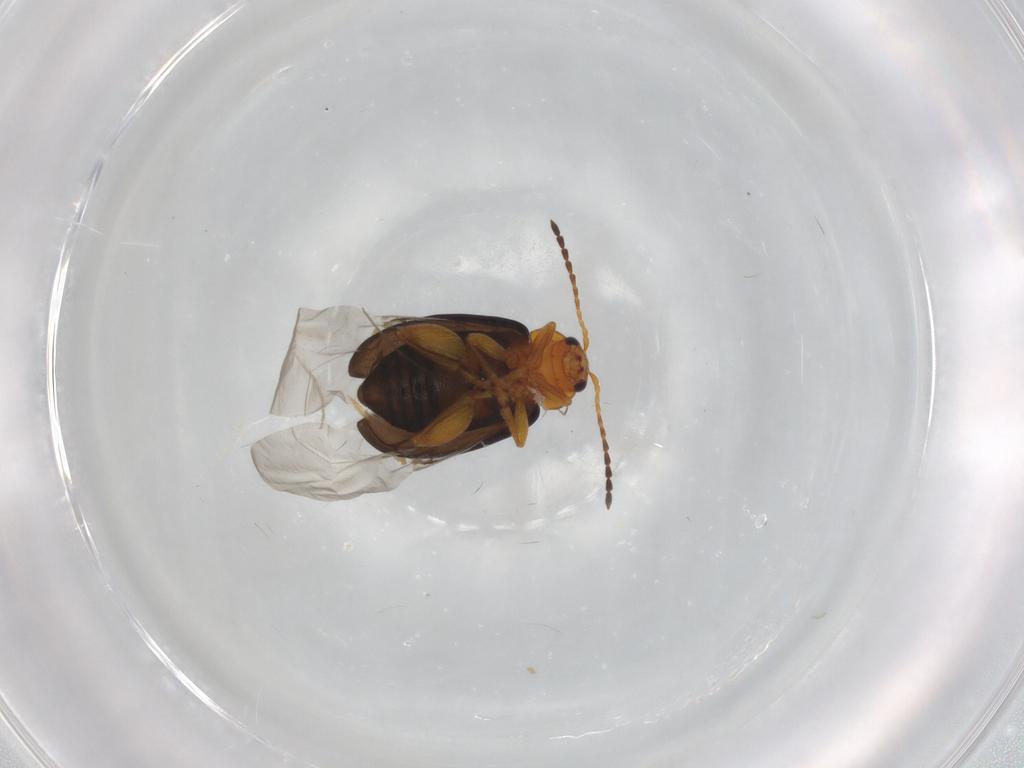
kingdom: Animalia
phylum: Arthropoda
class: Insecta
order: Coleoptera
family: Chrysomelidae
